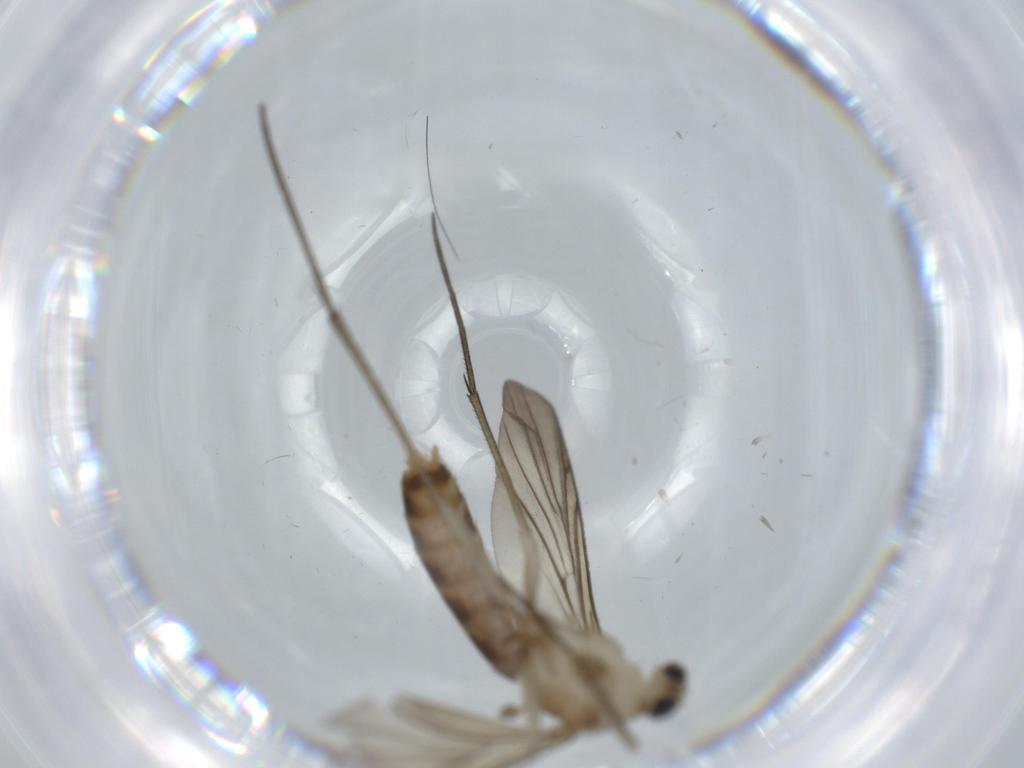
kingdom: Animalia
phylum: Arthropoda
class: Insecta
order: Diptera
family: Mycetophilidae
